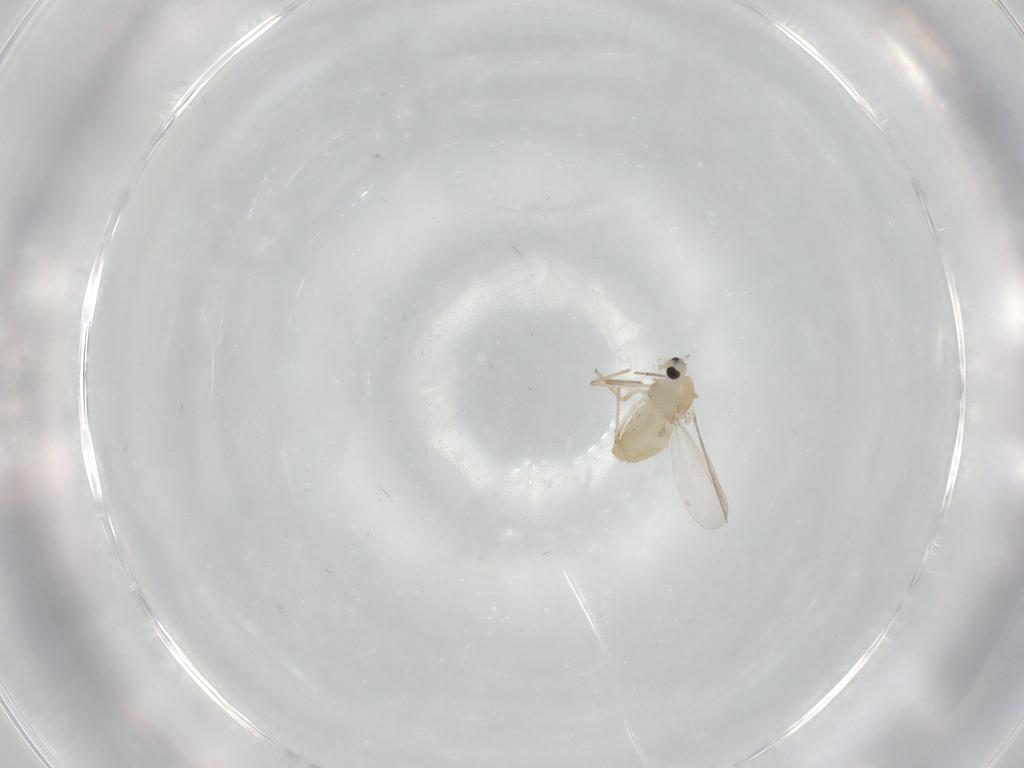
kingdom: Animalia
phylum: Arthropoda
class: Insecta
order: Diptera
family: Chironomidae
